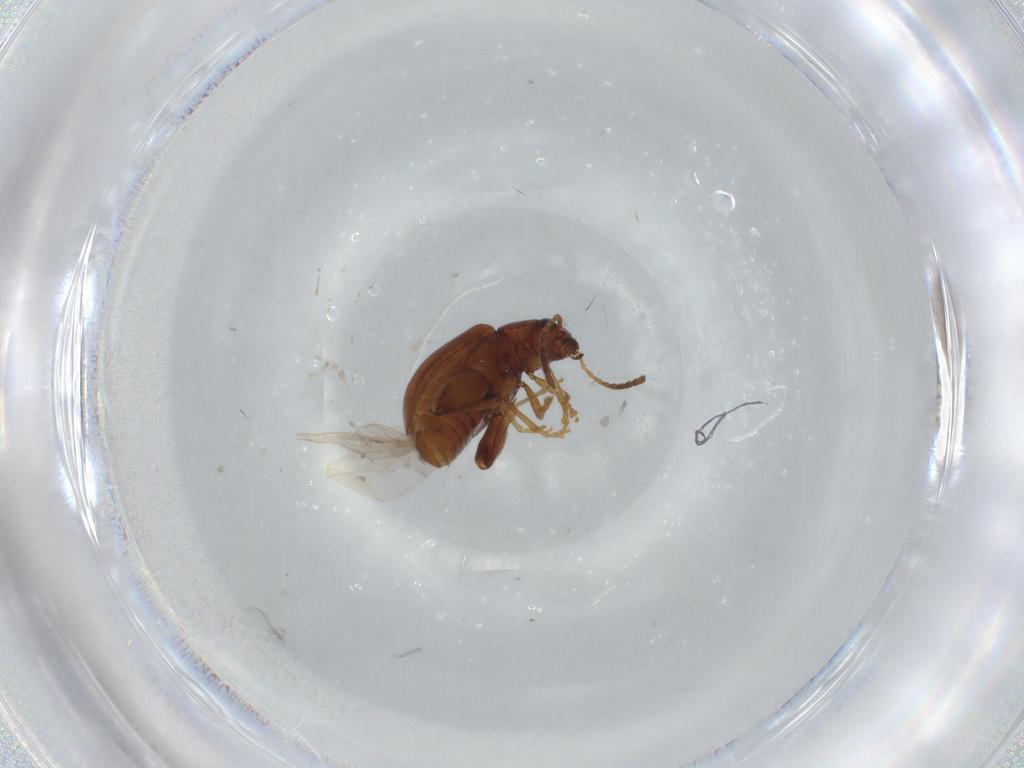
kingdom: Animalia
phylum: Arthropoda
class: Insecta
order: Coleoptera
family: Chrysomelidae
